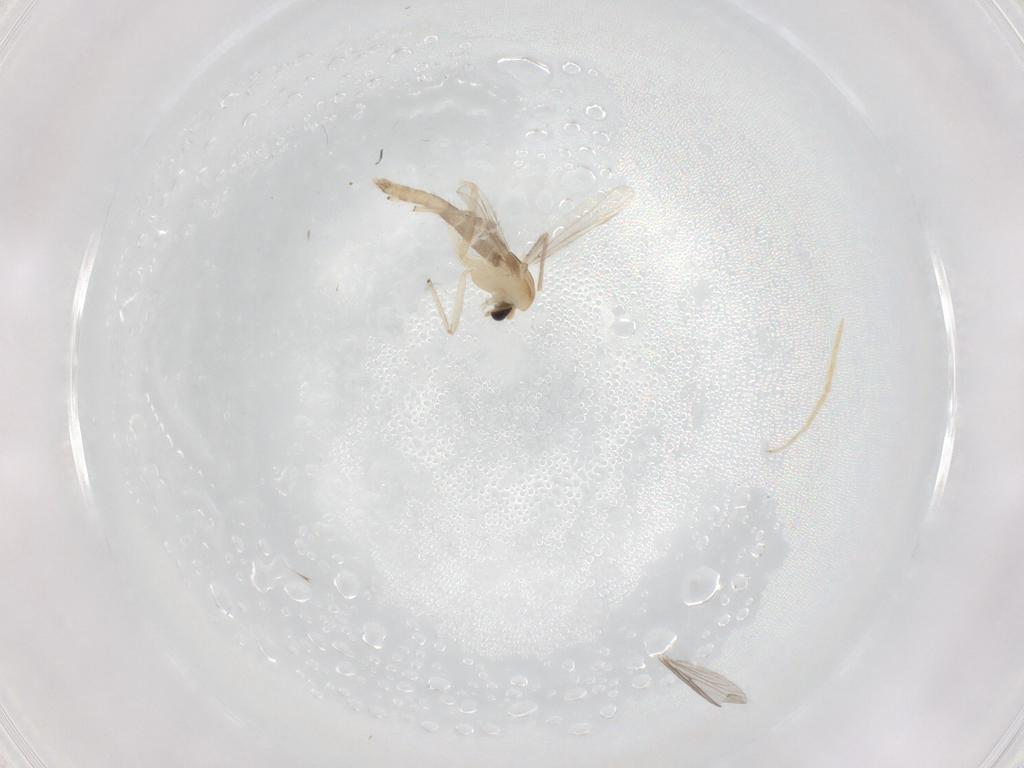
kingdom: Animalia
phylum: Arthropoda
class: Insecta
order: Diptera
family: Chironomidae
